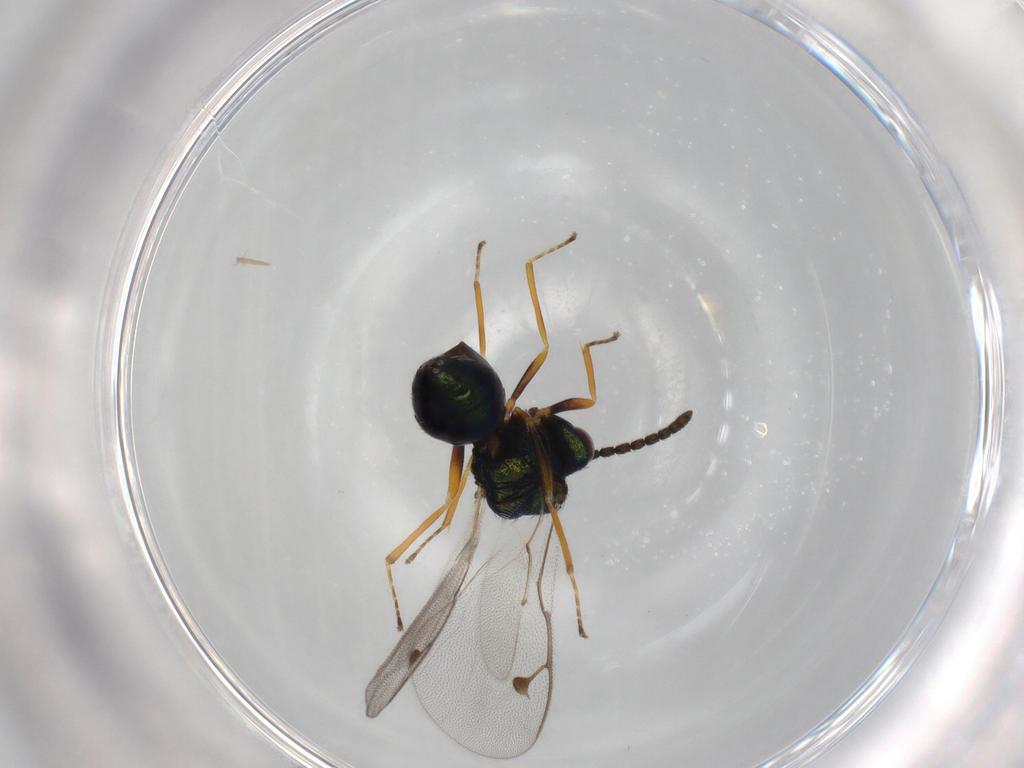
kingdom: Animalia
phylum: Arthropoda
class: Insecta
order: Hymenoptera
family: Pteromalidae
